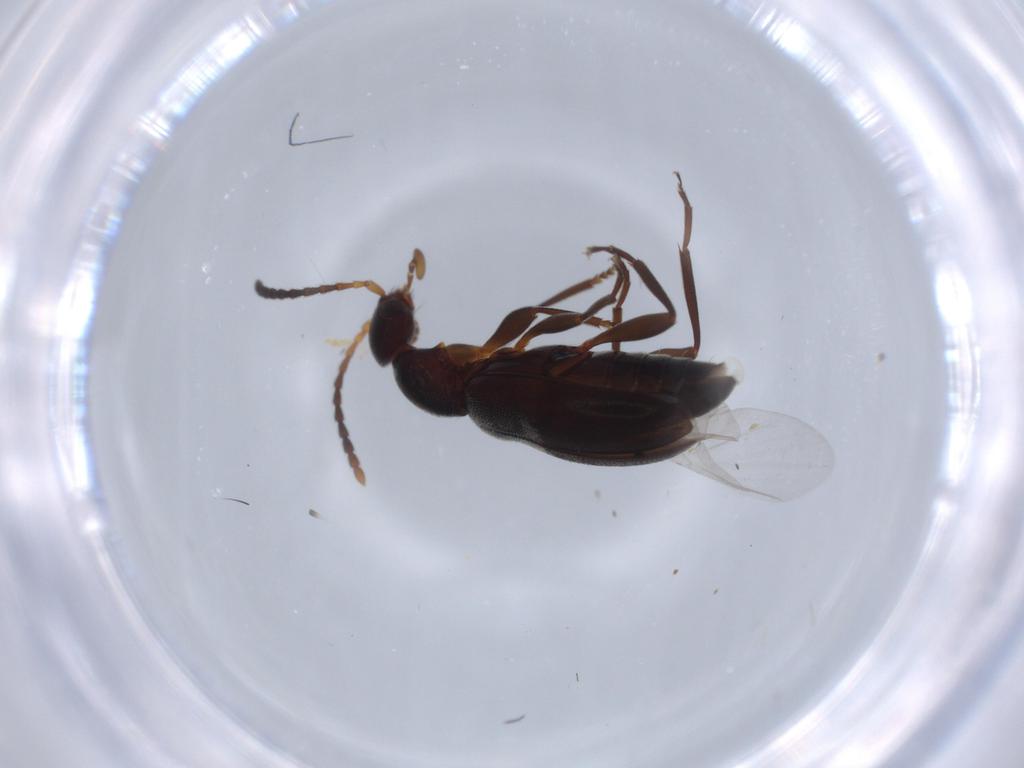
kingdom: Animalia
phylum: Arthropoda
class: Insecta
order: Coleoptera
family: Anthicidae
